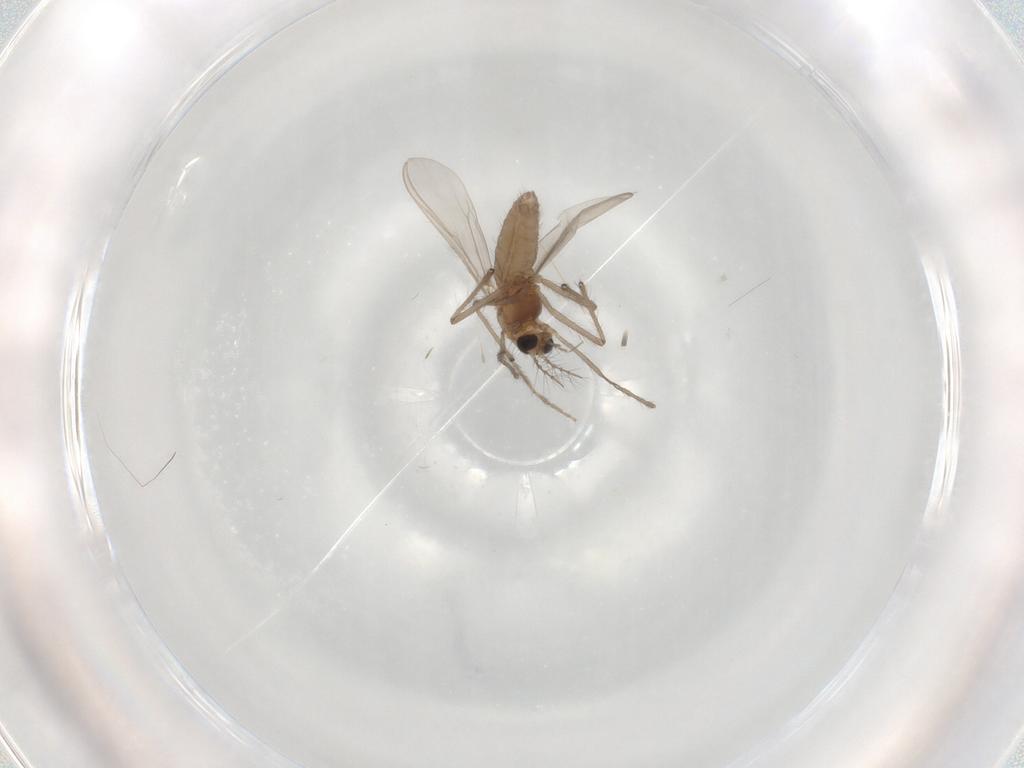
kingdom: Animalia
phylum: Arthropoda
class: Insecta
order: Diptera
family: Chironomidae
